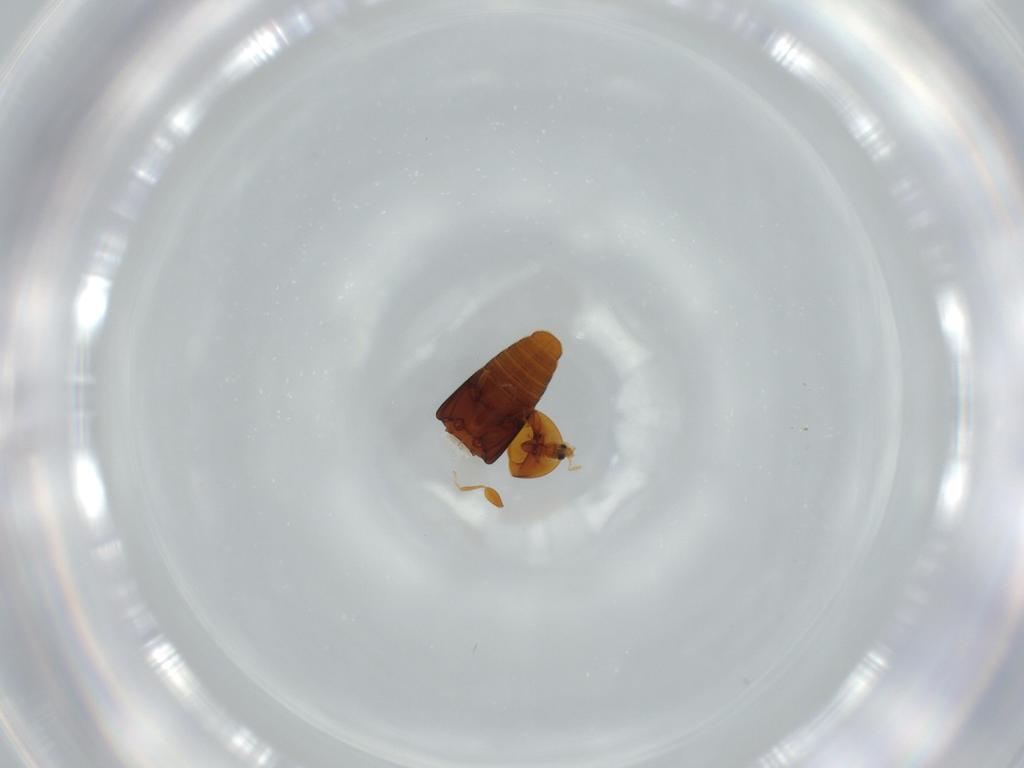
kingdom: Animalia
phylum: Arthropoda
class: Insecta
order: Coleoptera
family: Corylophidae
